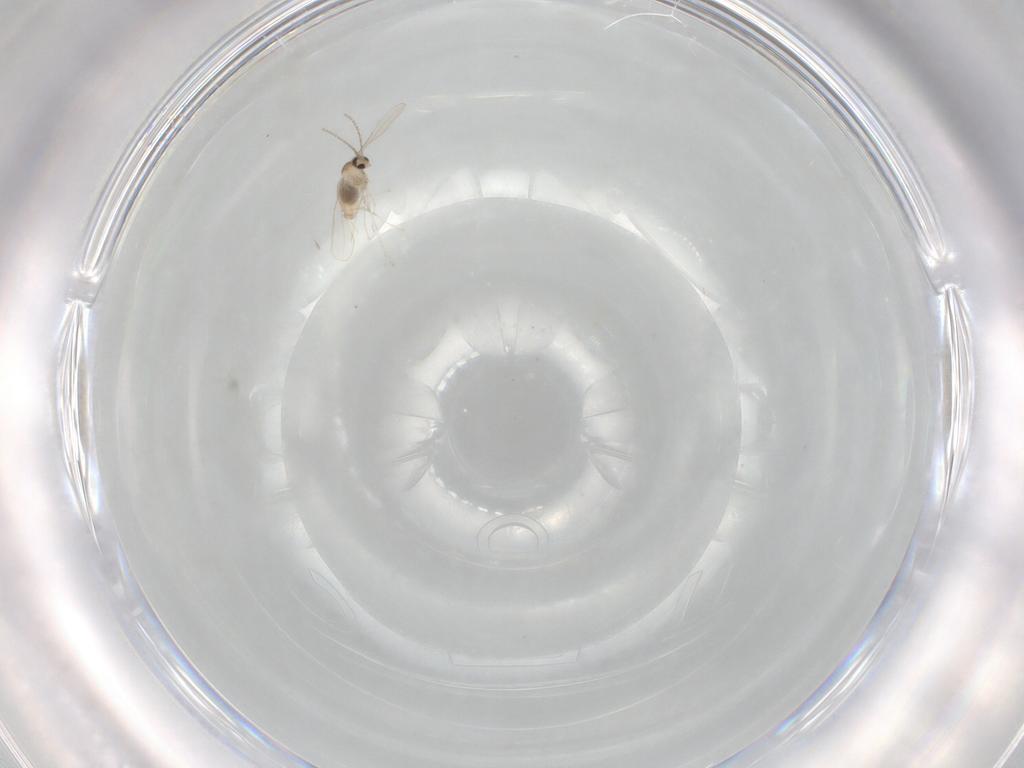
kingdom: Animalia
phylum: Arthropoda
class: Insecta
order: Diptera
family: Cecidomyiidae
